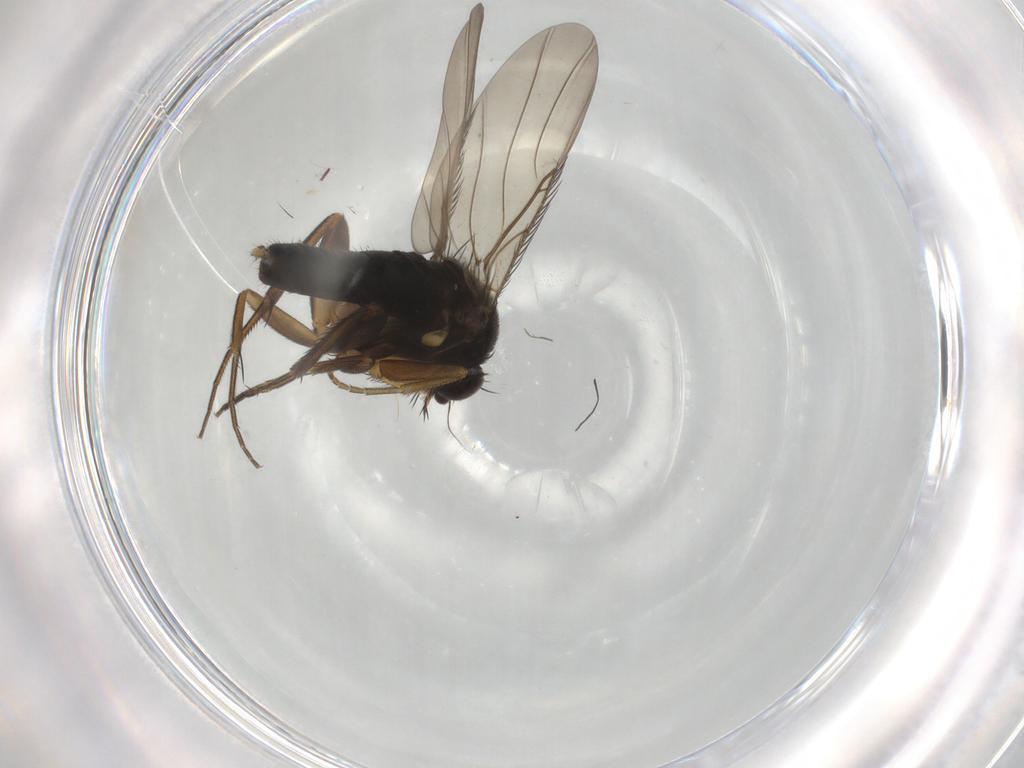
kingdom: Animalia
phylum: Arthropoda
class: Insecta
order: Diptera
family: Phoridae
